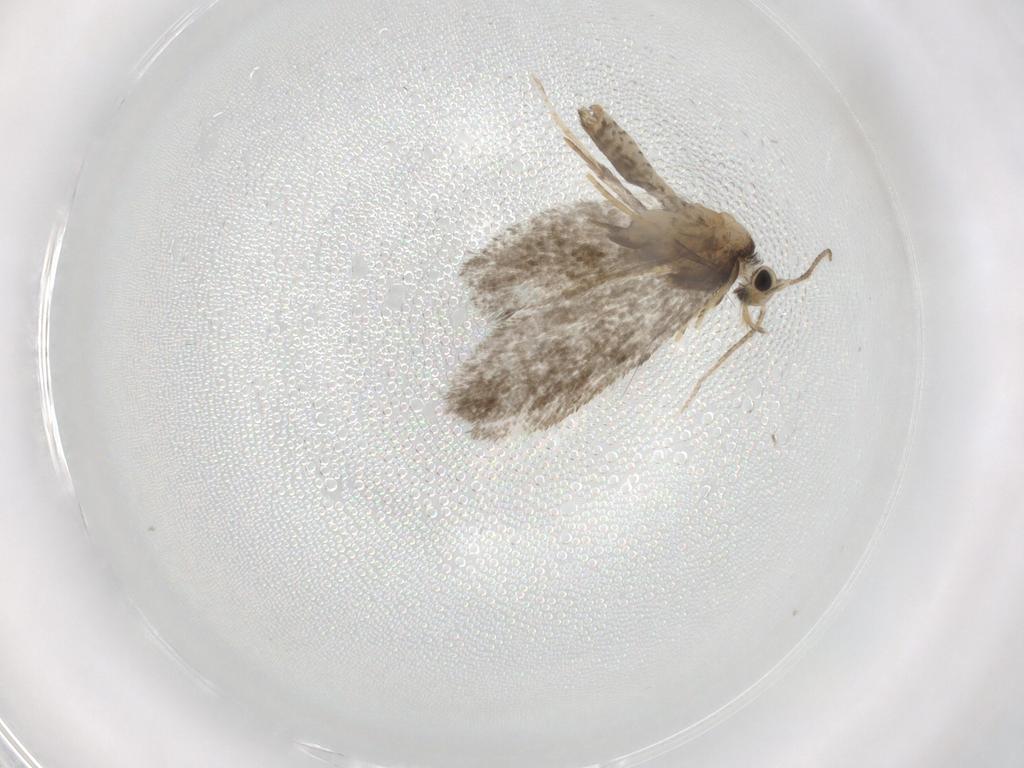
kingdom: Animalia
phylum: Arthropoda
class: Insecta
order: Lepidoptera
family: Psychidae
